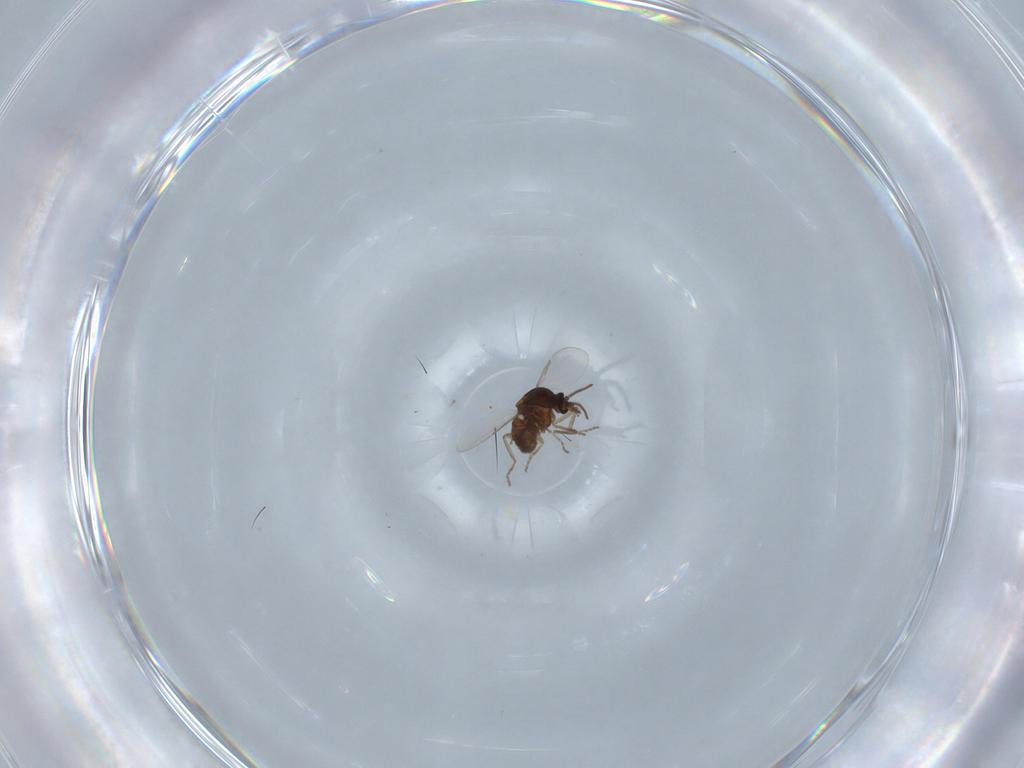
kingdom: Animalia
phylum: Arthropoda
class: Insecta
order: Diptera
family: Ceratopogonidae
